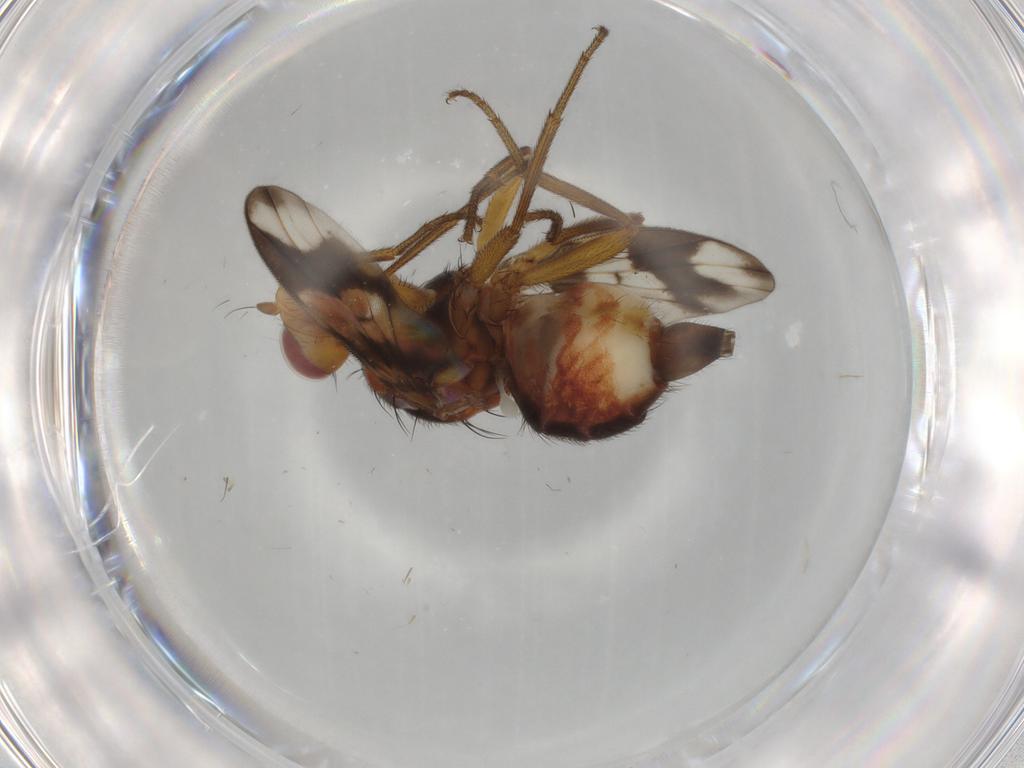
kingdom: Animalia
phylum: Arthropoda
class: Insecta
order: Diptera
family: Richardiidae
